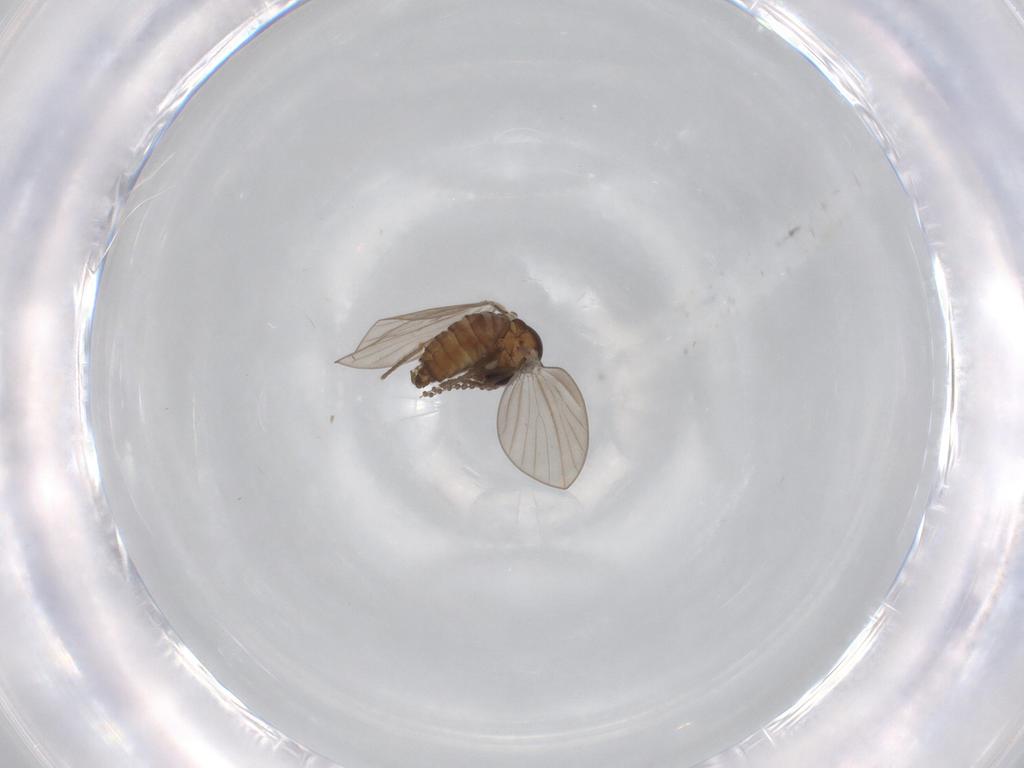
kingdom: Animalia
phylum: Arthropoda
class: Insecta
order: Diptera
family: Psychodidae
